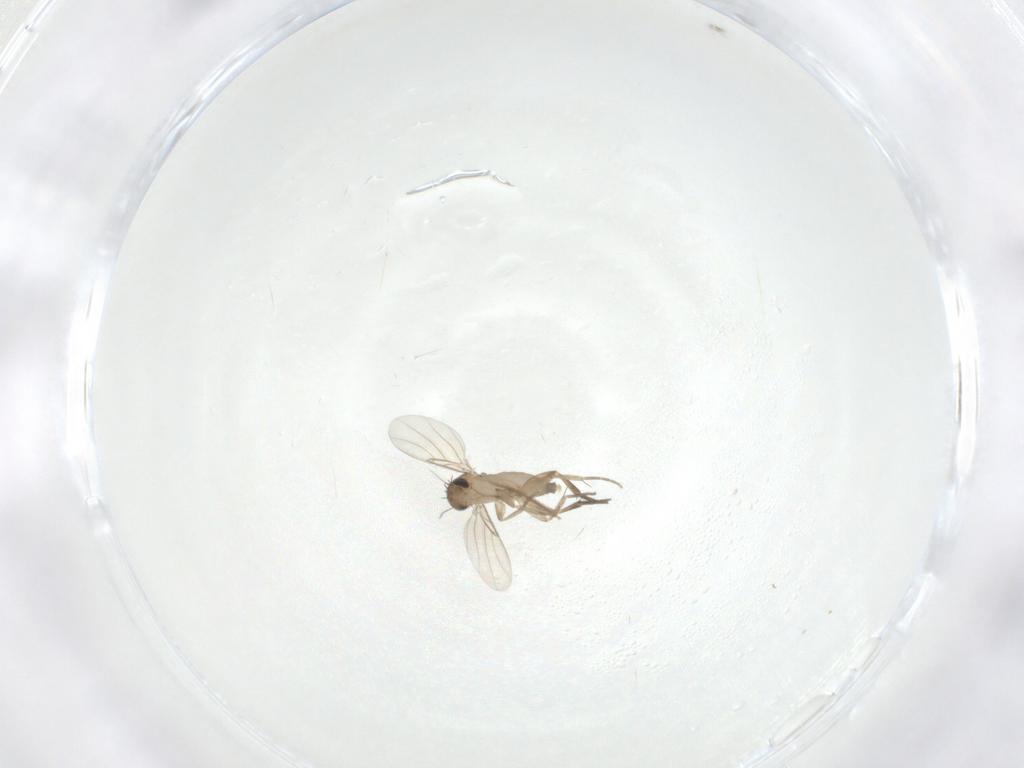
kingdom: Animalia
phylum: Arthropoda
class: Insecta
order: Diptera
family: Chironomidae
